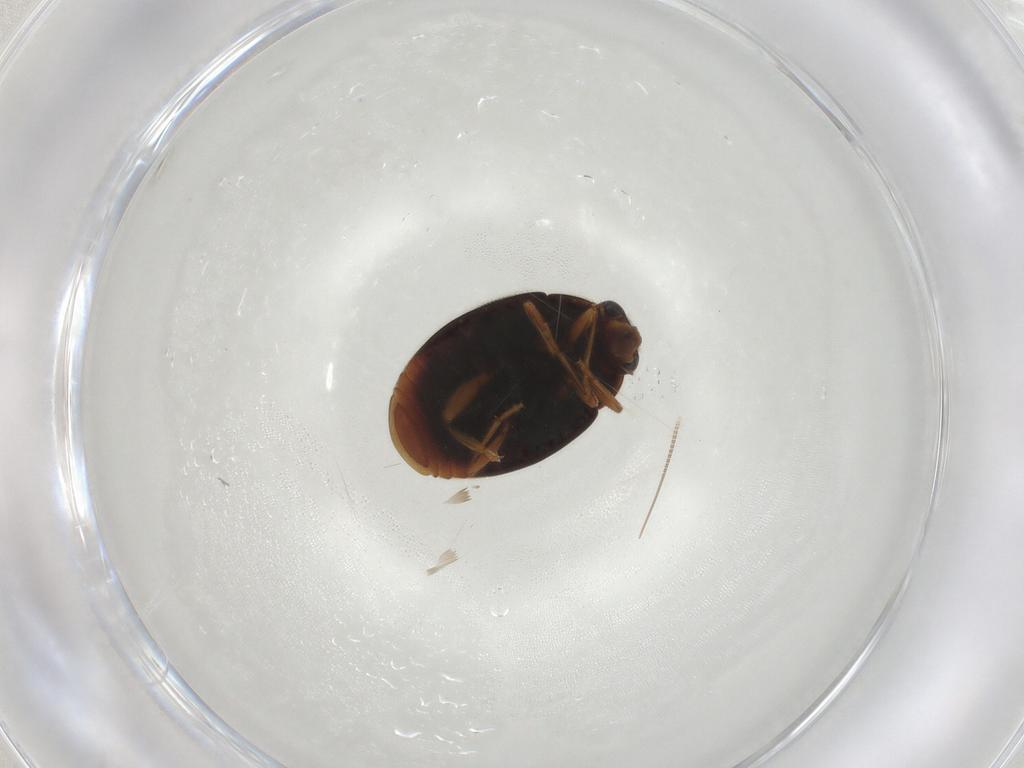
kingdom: Animalia
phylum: Arthropoda
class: Insecta
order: Coleoptera
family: Coccinellidae
